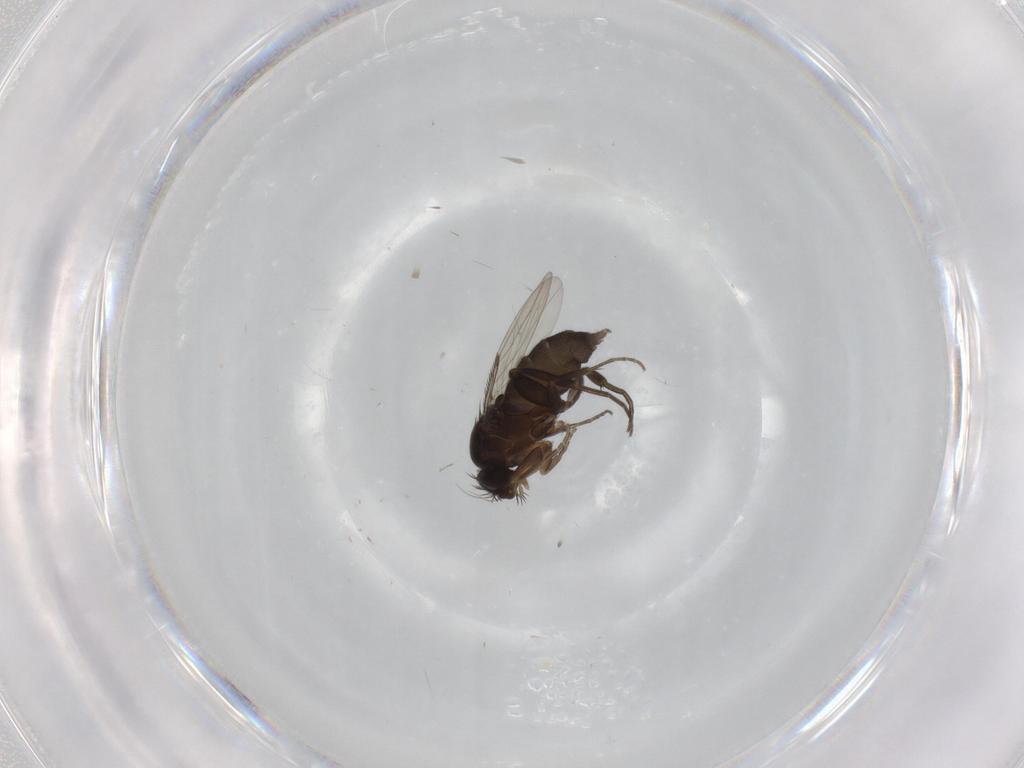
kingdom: Animalia
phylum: Arthropoda
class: Insecta
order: Diptera
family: Phoridae
